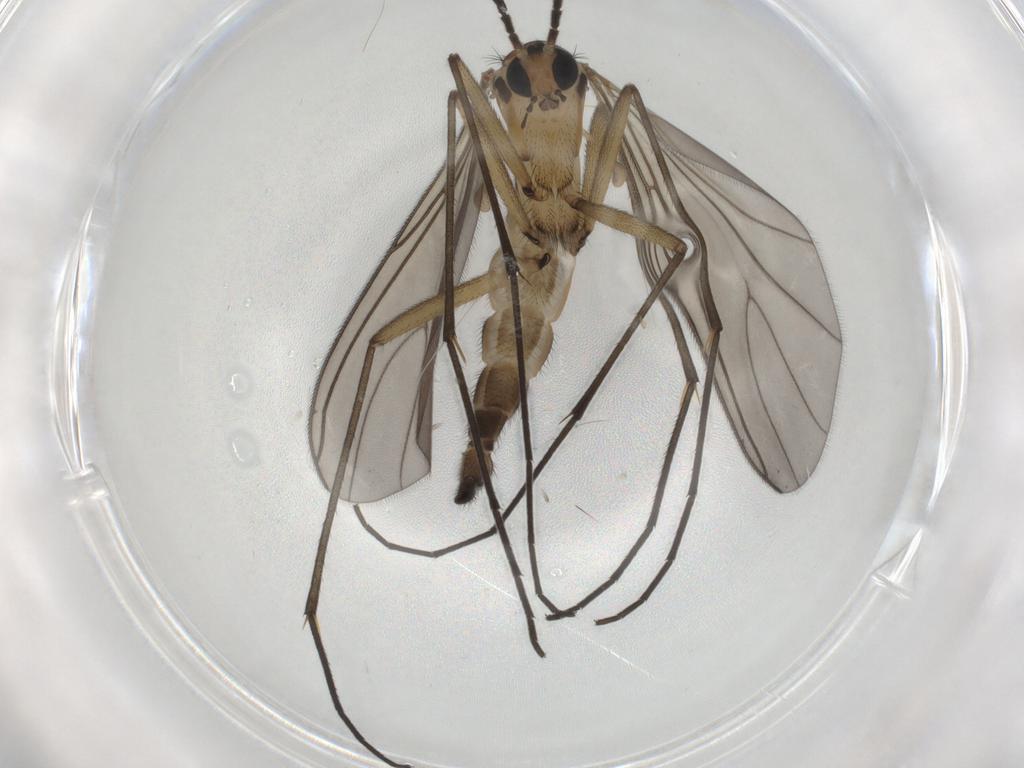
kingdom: Animalia
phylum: Arthropoda
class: Insecta
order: Diptera
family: Sciaridae
